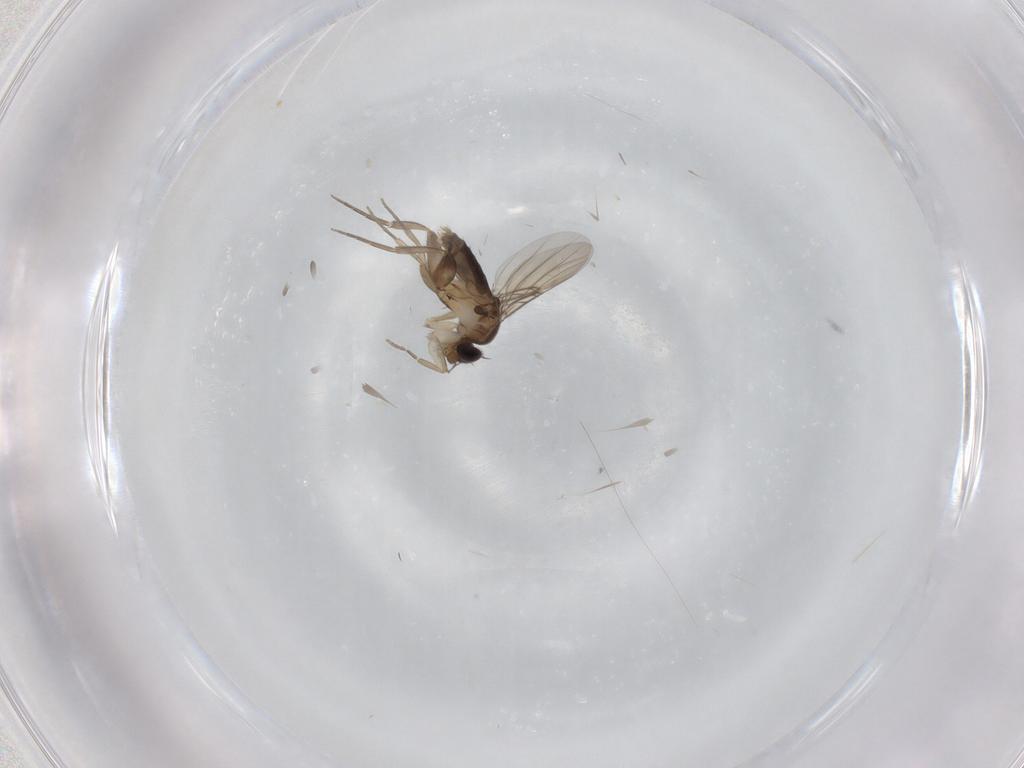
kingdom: Animalia
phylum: Arthropoda
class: Insecta
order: Diptera
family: Phoridae
